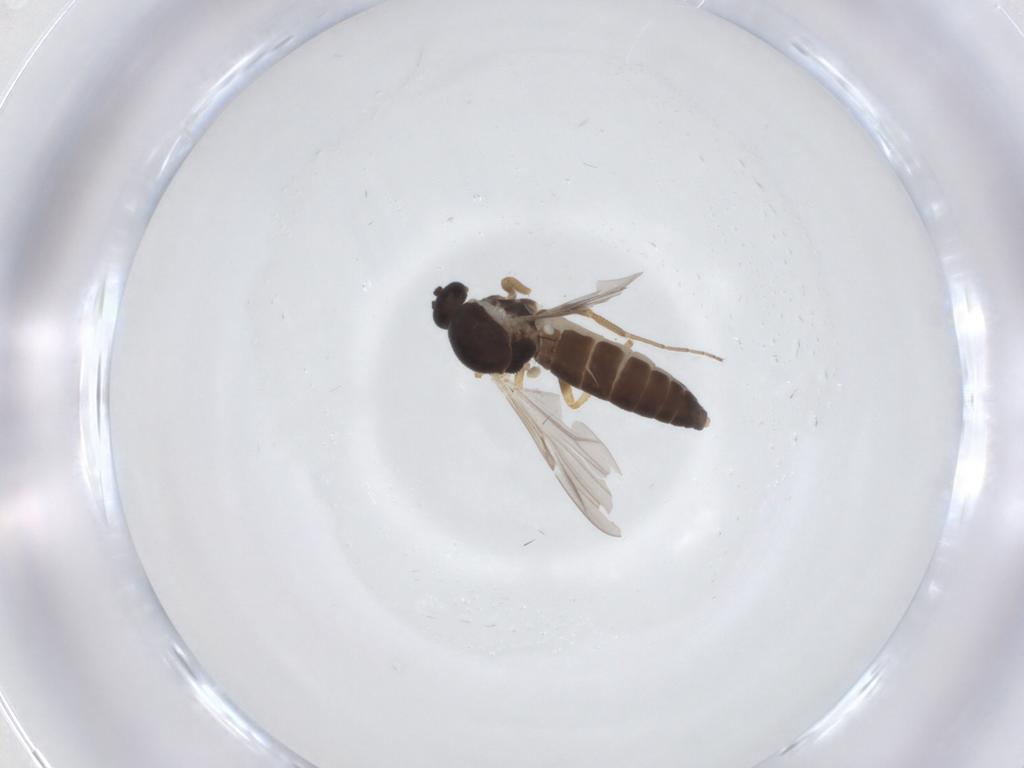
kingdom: Animalia
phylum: Arthropoda
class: Insecta
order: Diptera
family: Ceratopogonidae
